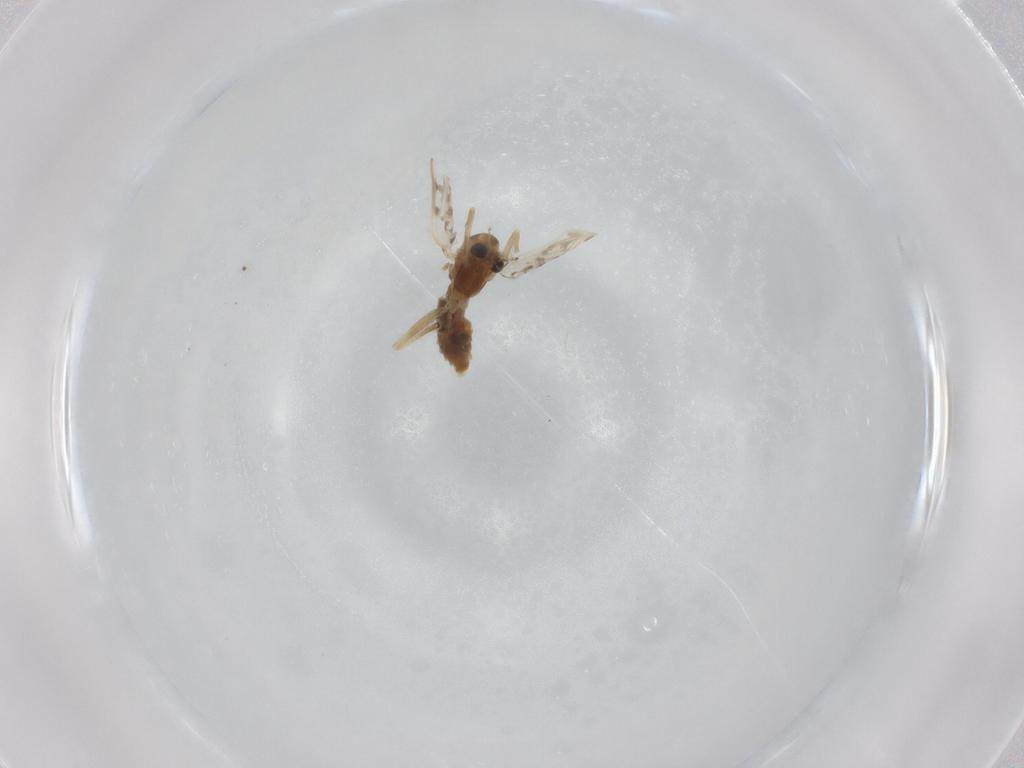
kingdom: Animalia
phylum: Arthropoda
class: Insecta
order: Diptera
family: Chironomidae
